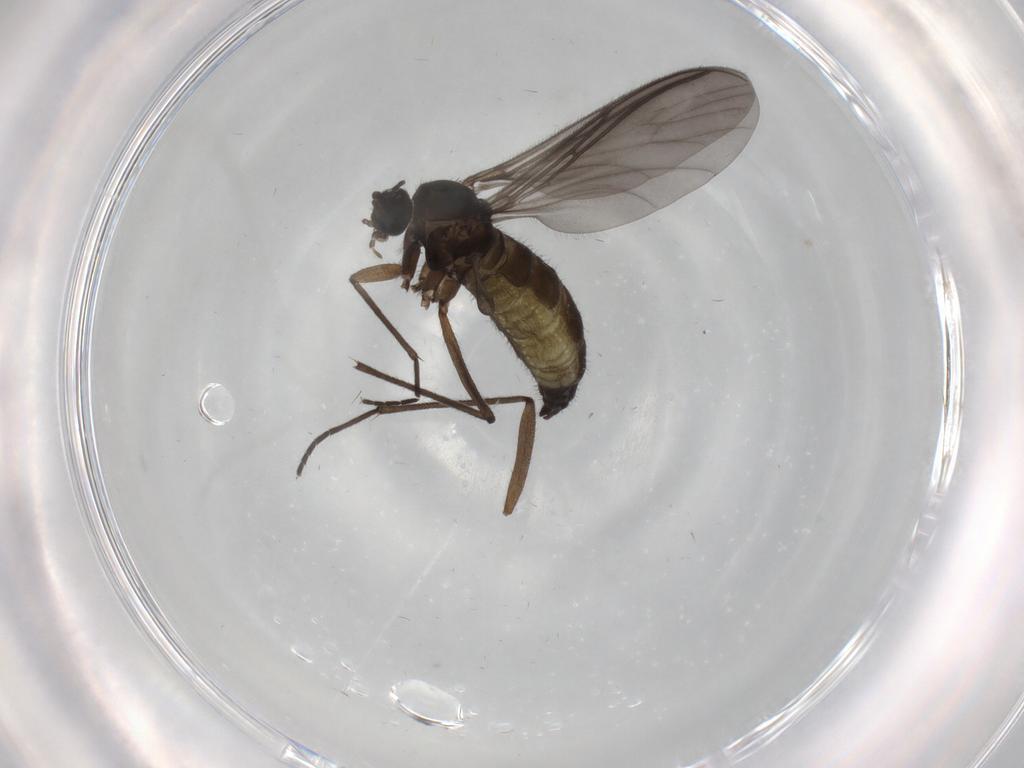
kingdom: Animalia
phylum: Arthropoda
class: Insecta
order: Diptera
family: Sciaridae
